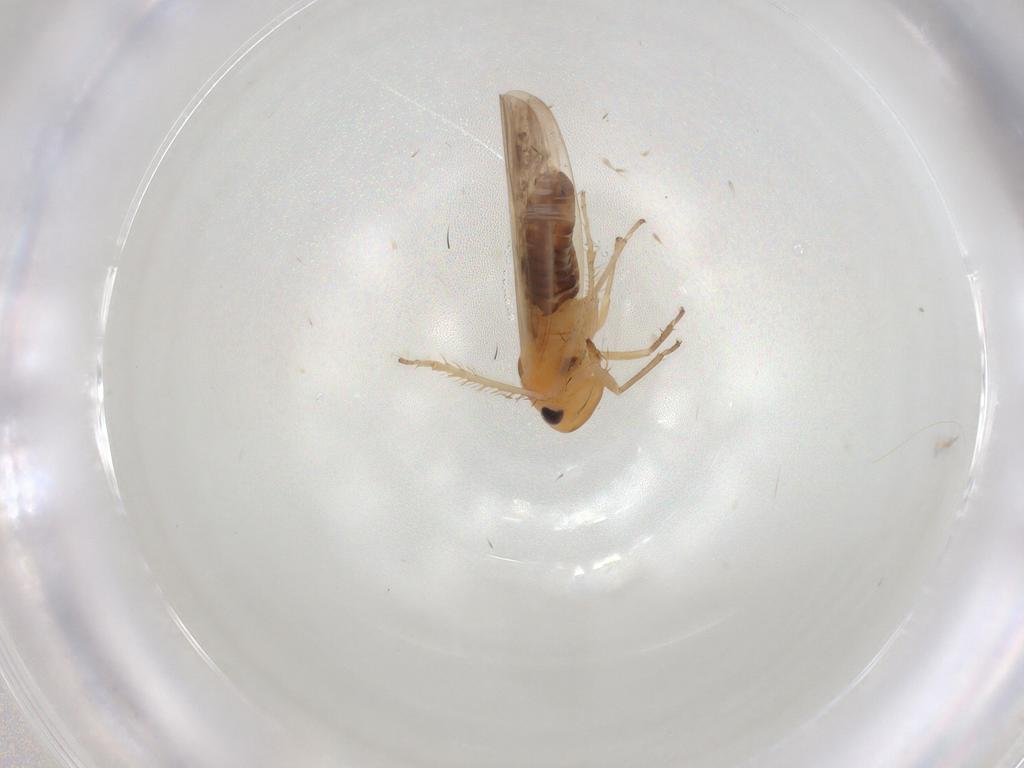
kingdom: Animalia
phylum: Arthropoda
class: Insecta
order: Hemiptera
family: Cicadellidae
